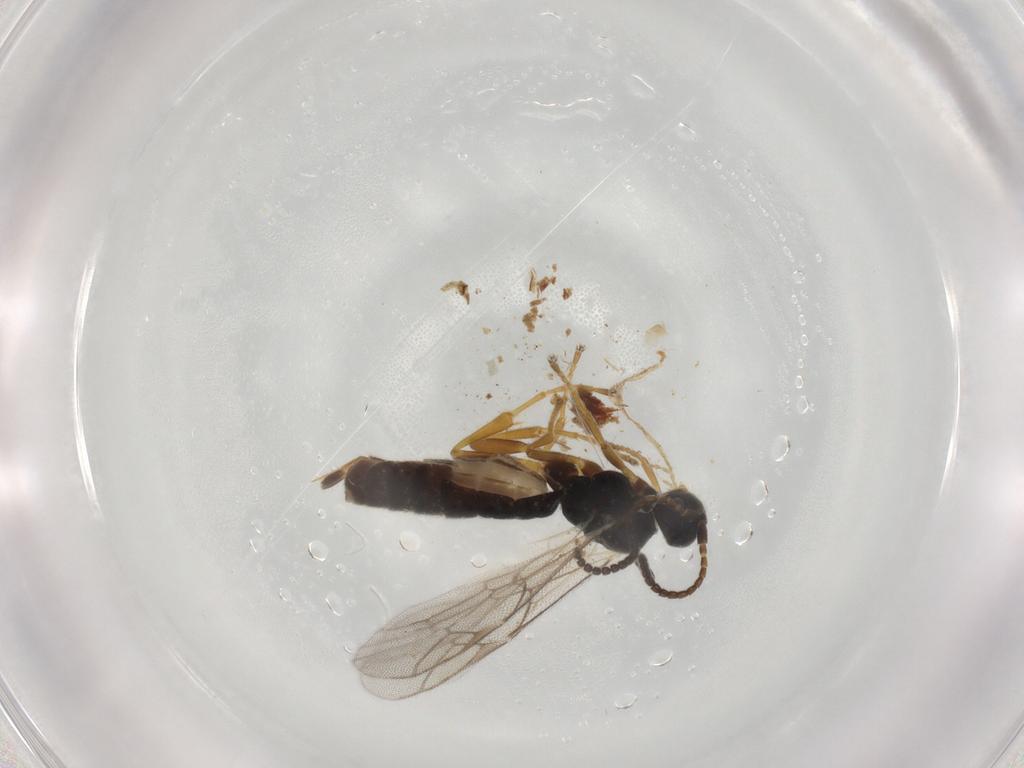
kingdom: Animalia
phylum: Arthropoda
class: Insecta
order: Hymenoptera
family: Ichneumonidae
